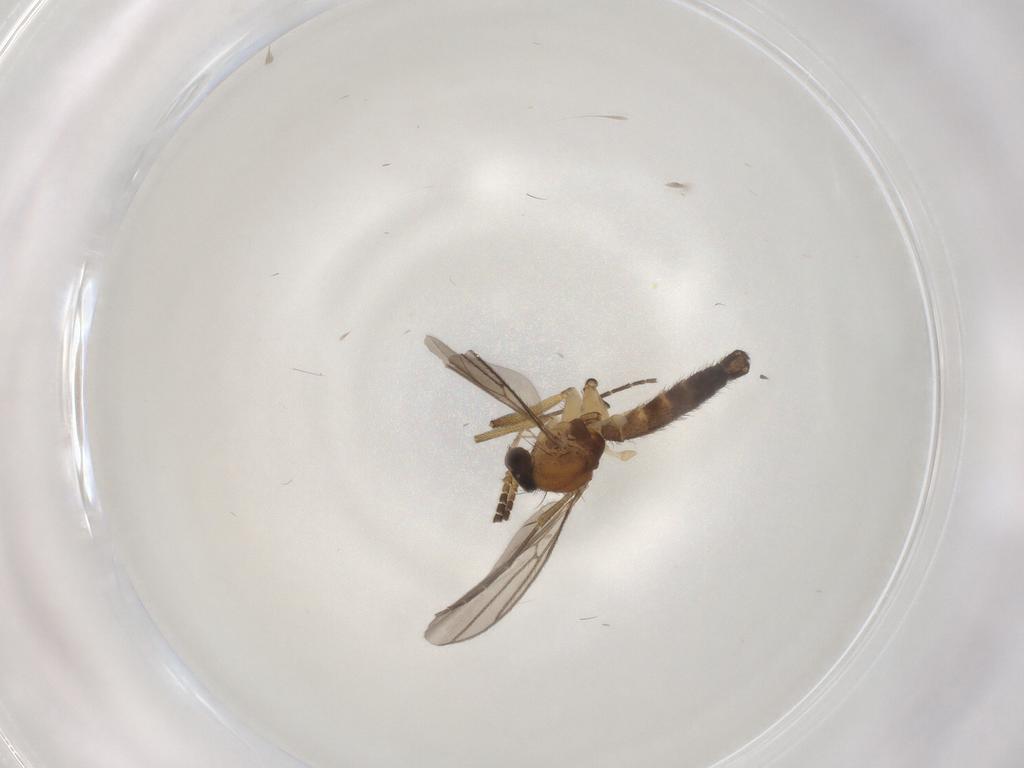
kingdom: Animalia
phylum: Arthropoda
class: Insecta
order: Diptera
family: Mycetophilidae
